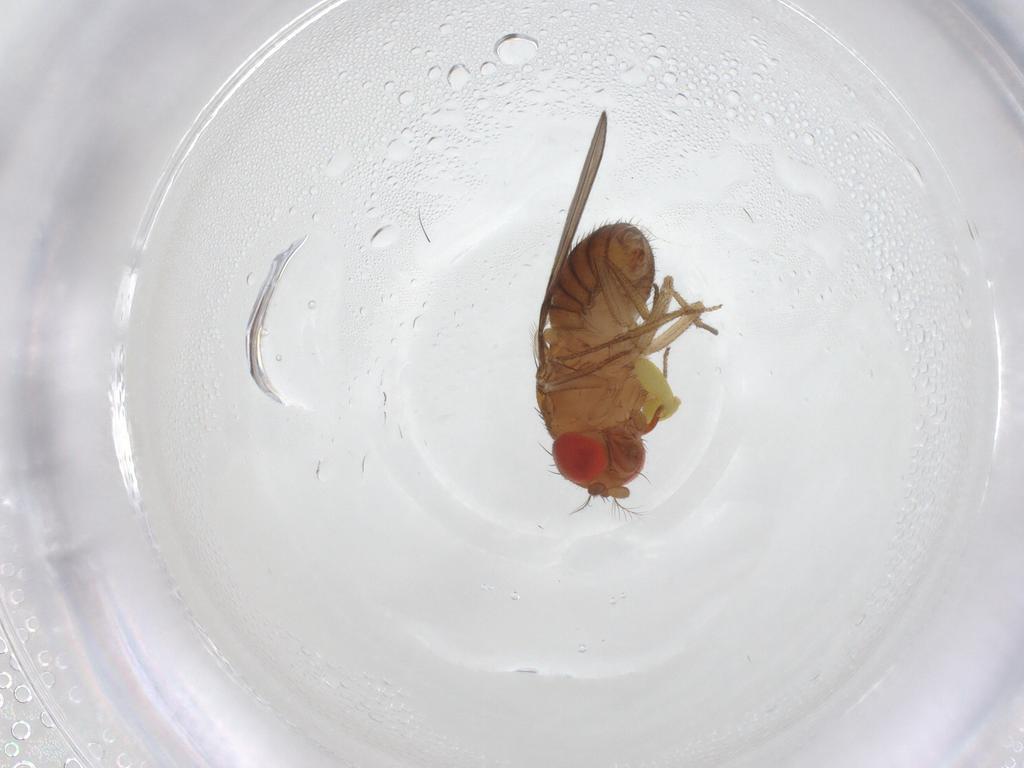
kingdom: Animalia
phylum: Arthropoda
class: Insecta
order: Diptera
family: Drosophilidae
